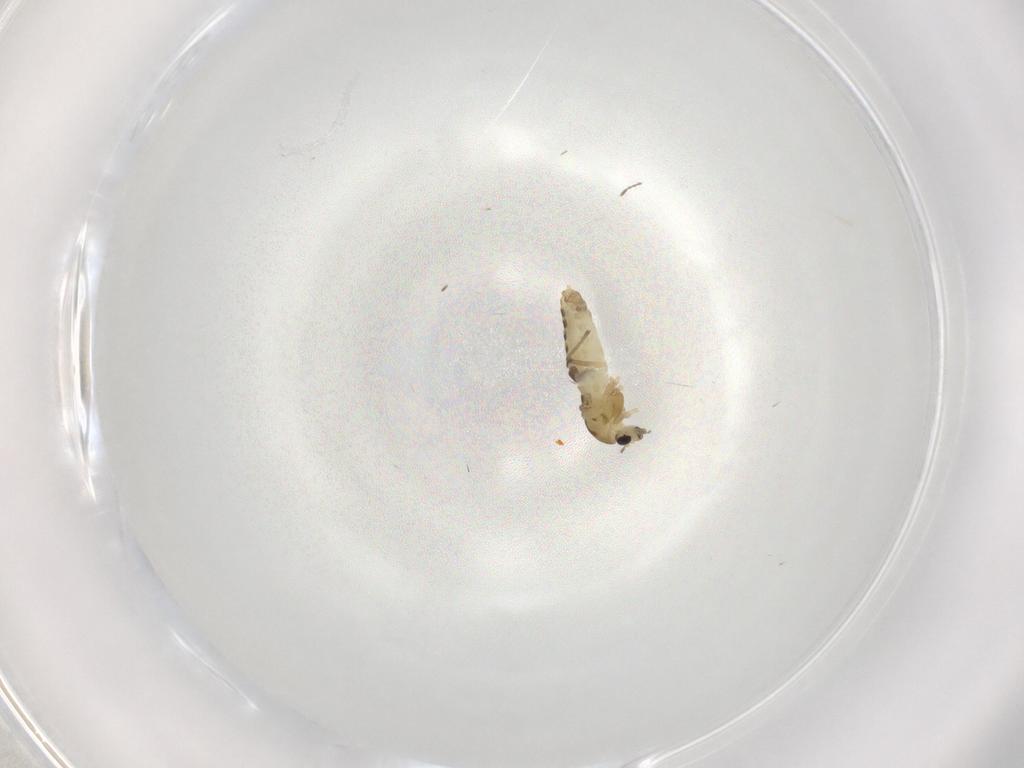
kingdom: Animalia
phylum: Arthropoda
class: Insecta
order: Diptera
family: Chironomidae
